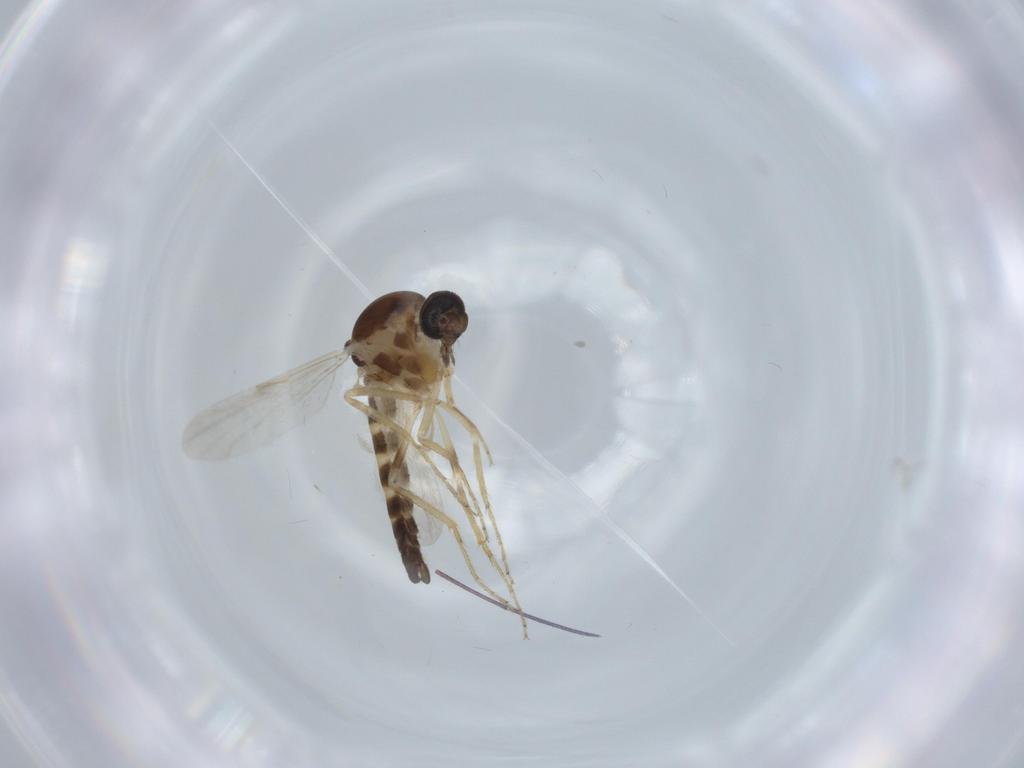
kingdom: Animalia
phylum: Arthropoda
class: Insecta
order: Diptera
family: Ceratopogonidae
